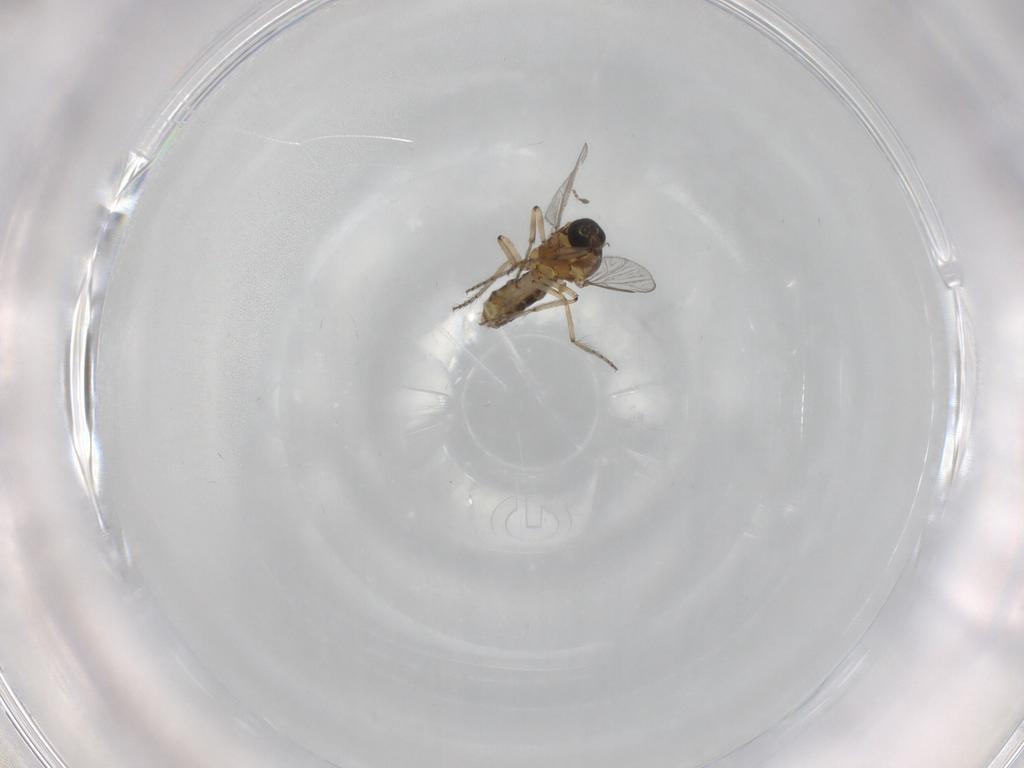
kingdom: Animalia
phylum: Arthropoda
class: Insecta
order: Diptera
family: Ceratopogonidae
